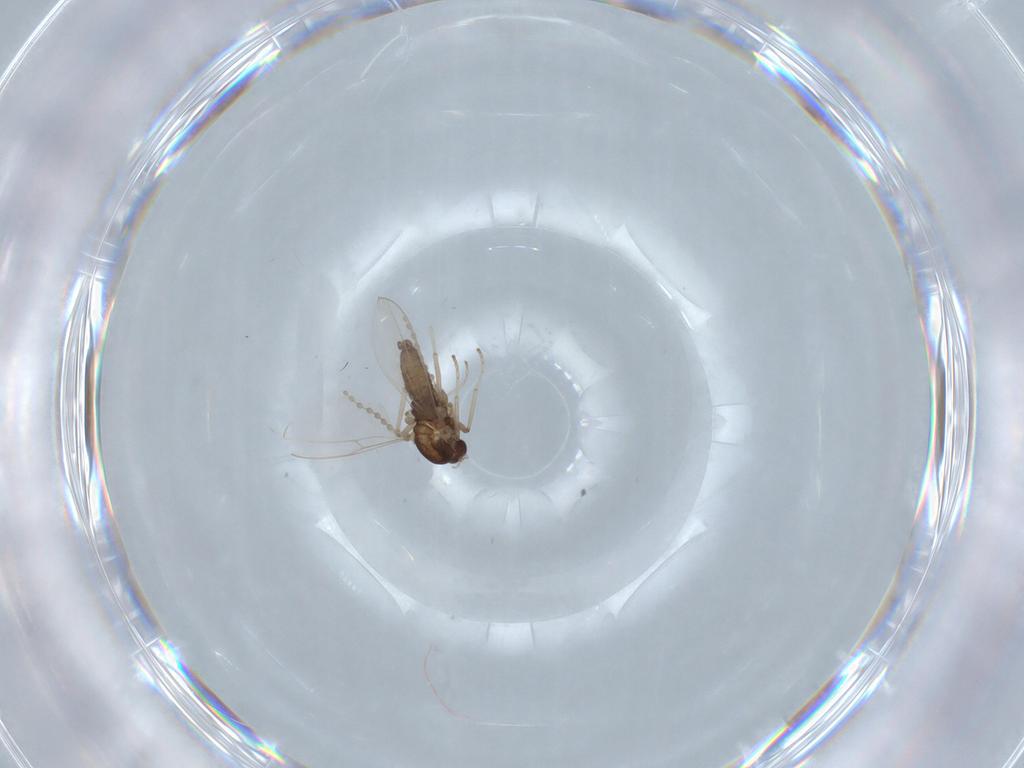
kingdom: Animalia
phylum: Arthropoda
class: Insecta
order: Diptera
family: Cecidomyiidae
